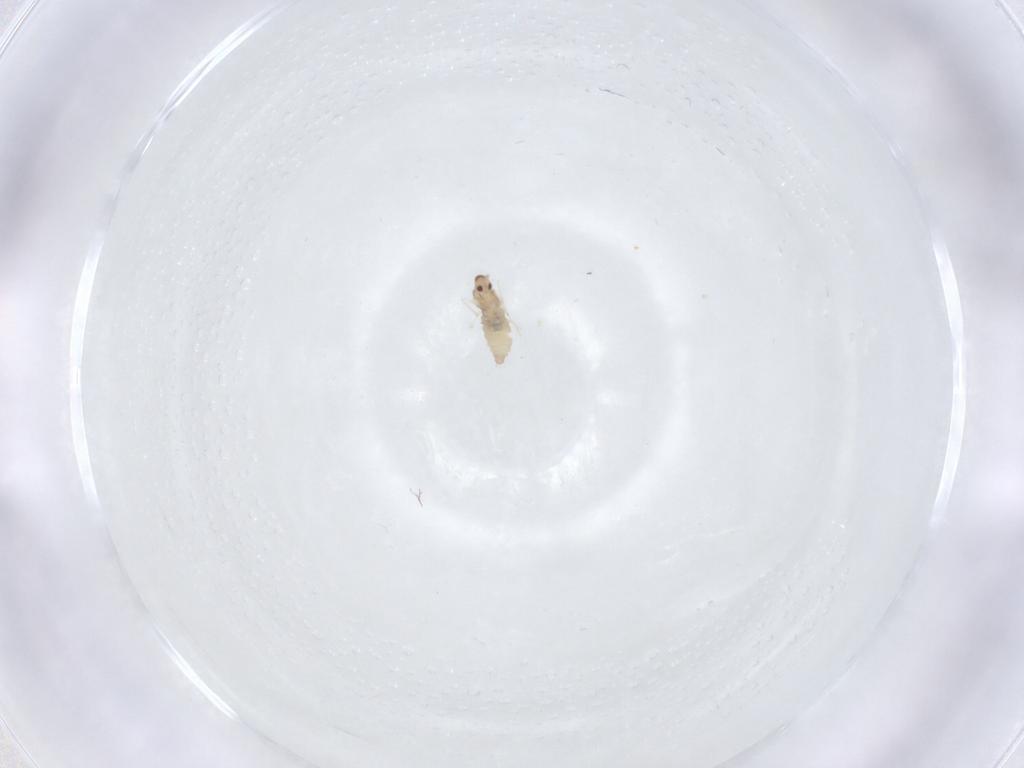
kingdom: Animalia
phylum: Arthropoda
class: Insecta
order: Diptera
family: Cecidomyiidae
